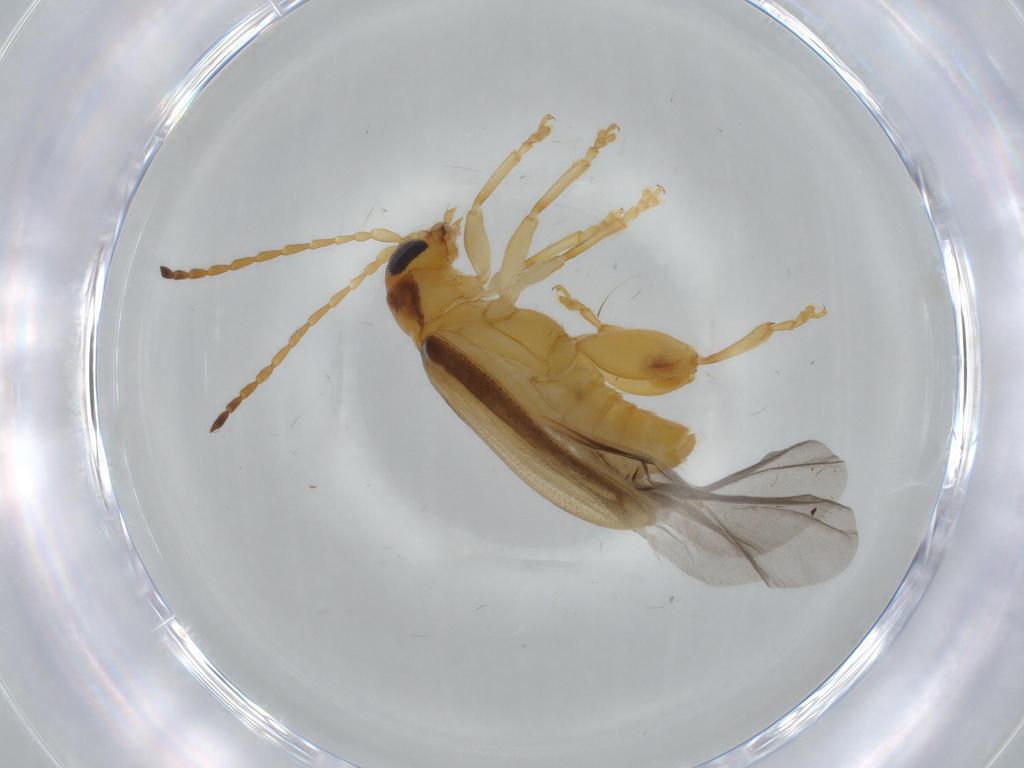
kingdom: Animalia
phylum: Arthropoda
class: Insecta
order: Coleoptera
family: Chrysomelidae
